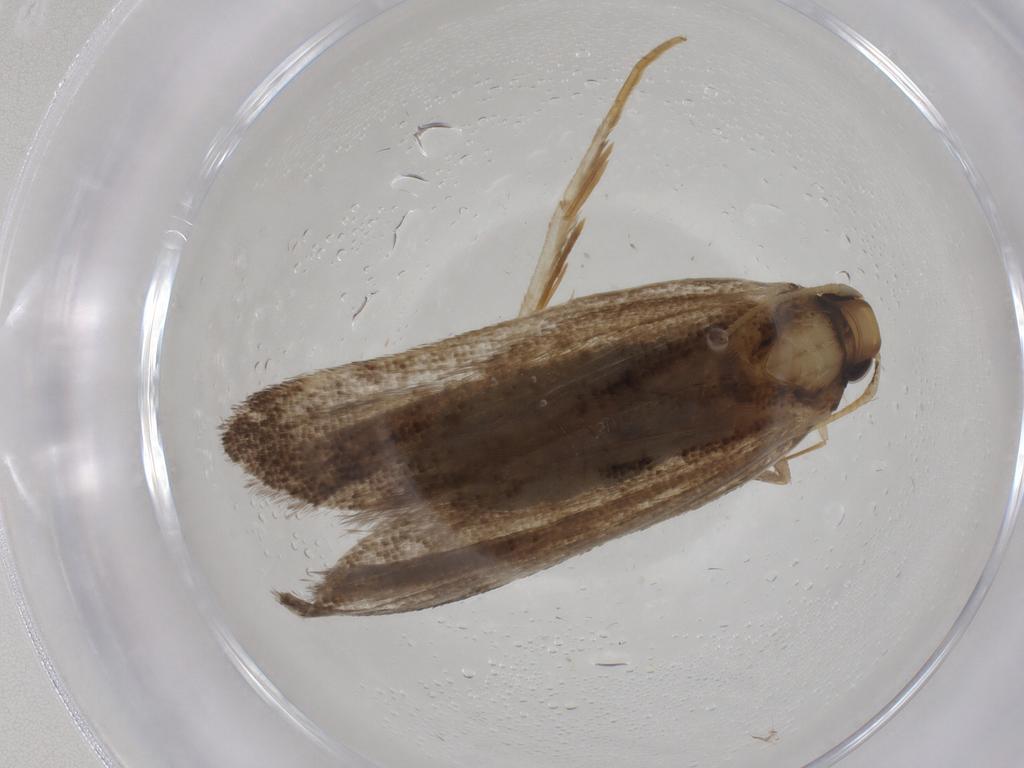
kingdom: Animalia
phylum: Arthropoda
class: Insecta
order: Lepidoptera
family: Lecithoceridae
